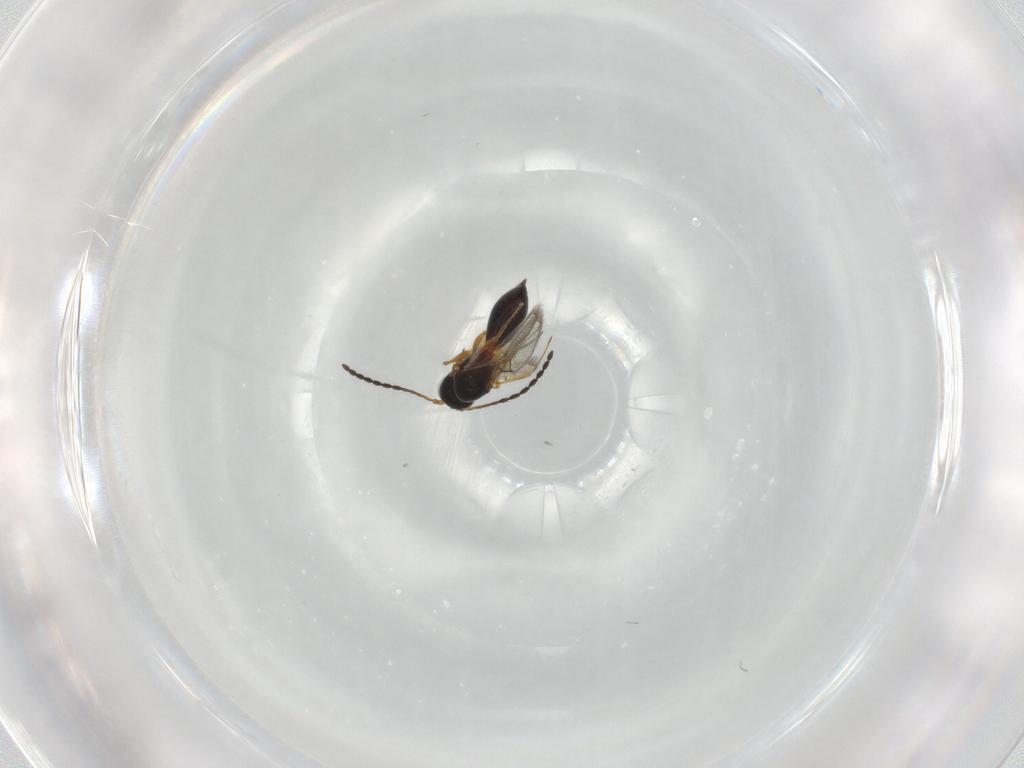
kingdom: Animalia
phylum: Arthropoda
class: Insecta
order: Hymenoptera
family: Figitidae
